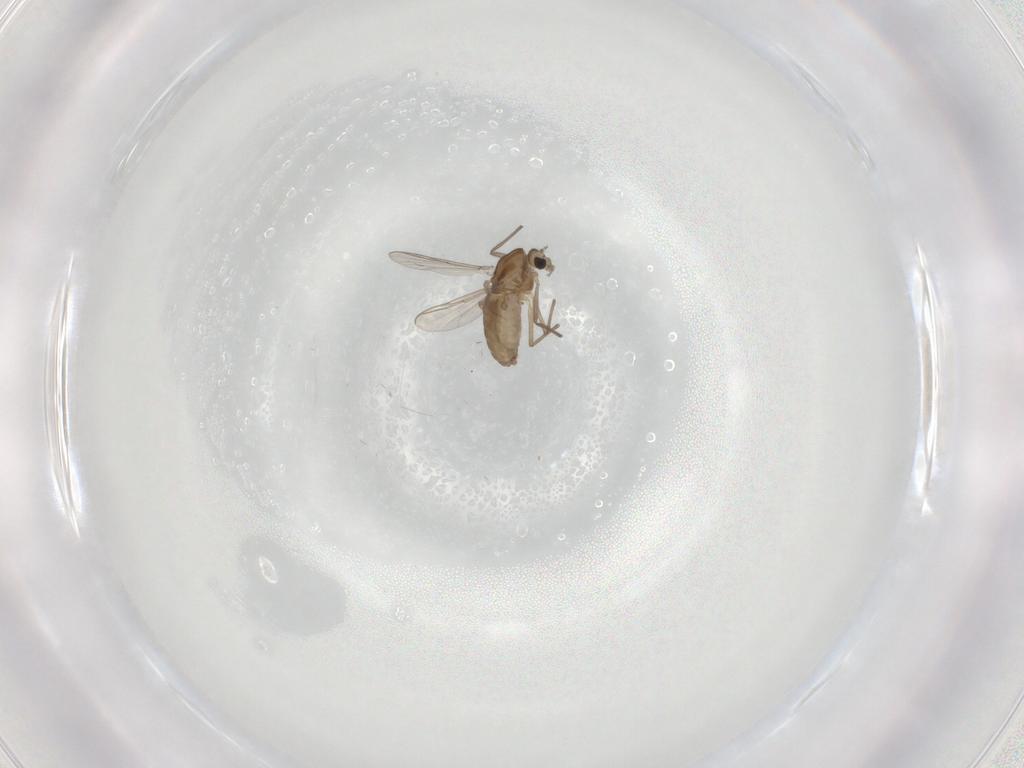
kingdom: Animalia
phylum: Arthropoda
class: Insecta
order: Diptera
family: Chironomidae
